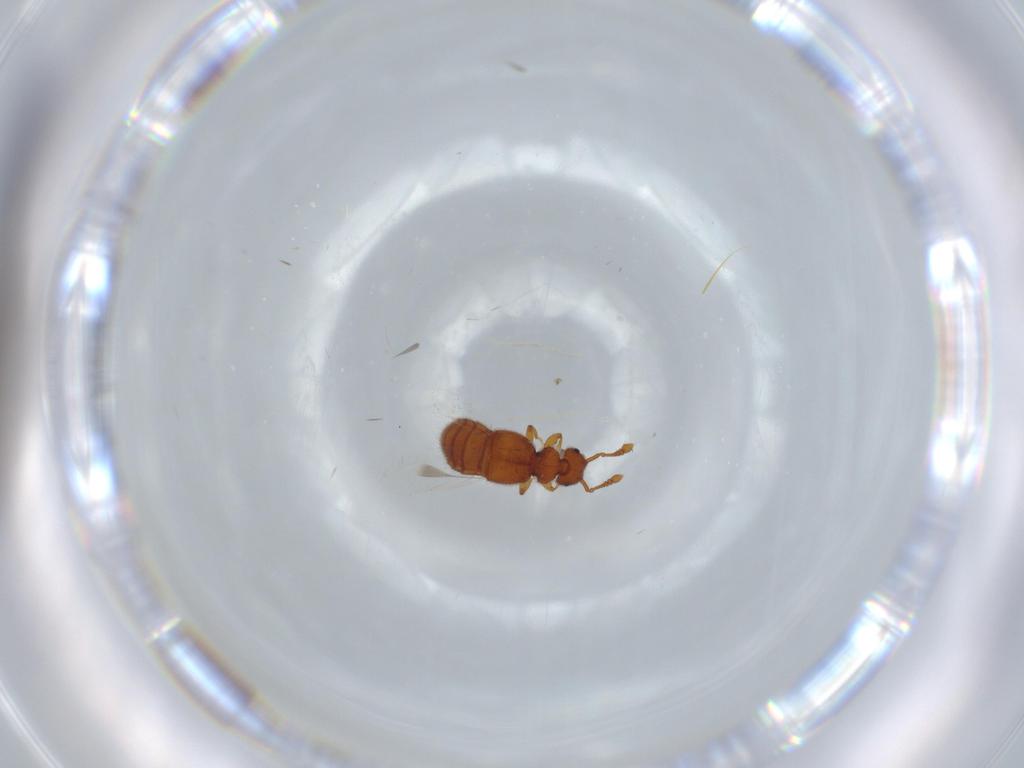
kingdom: Animalia
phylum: Arthropoda
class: Insecta
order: Coleoptera
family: Staphylinidae
